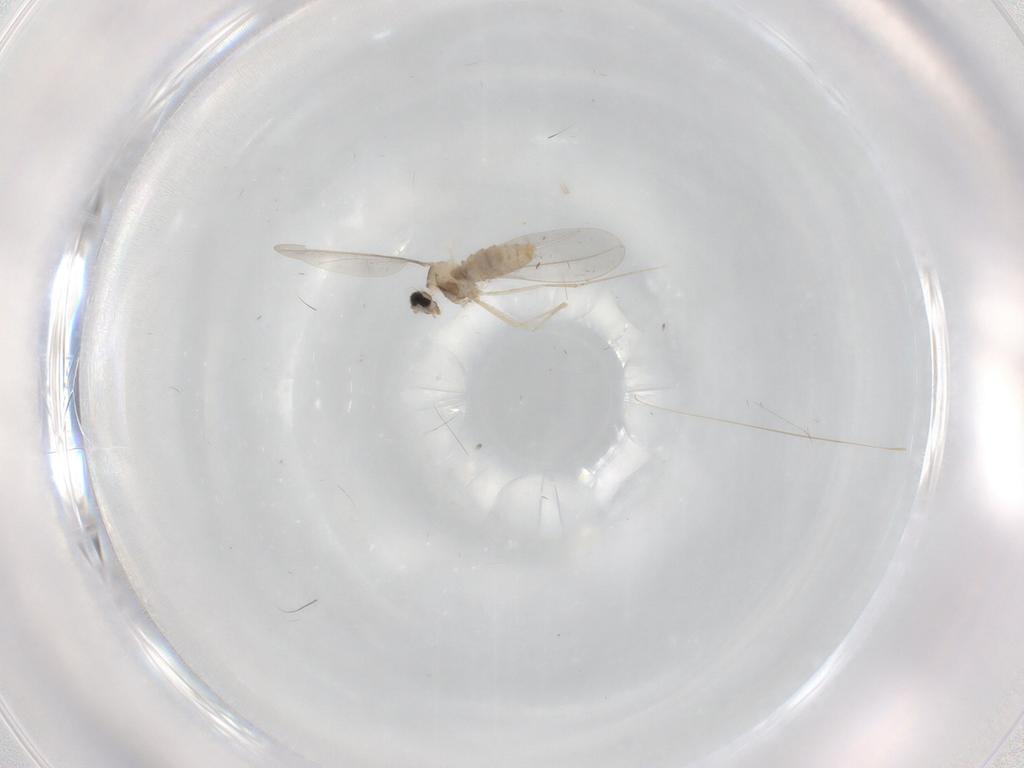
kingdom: Animalia
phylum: Arthropoda
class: Insecta
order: Diptera
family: Cecidomyiidae
